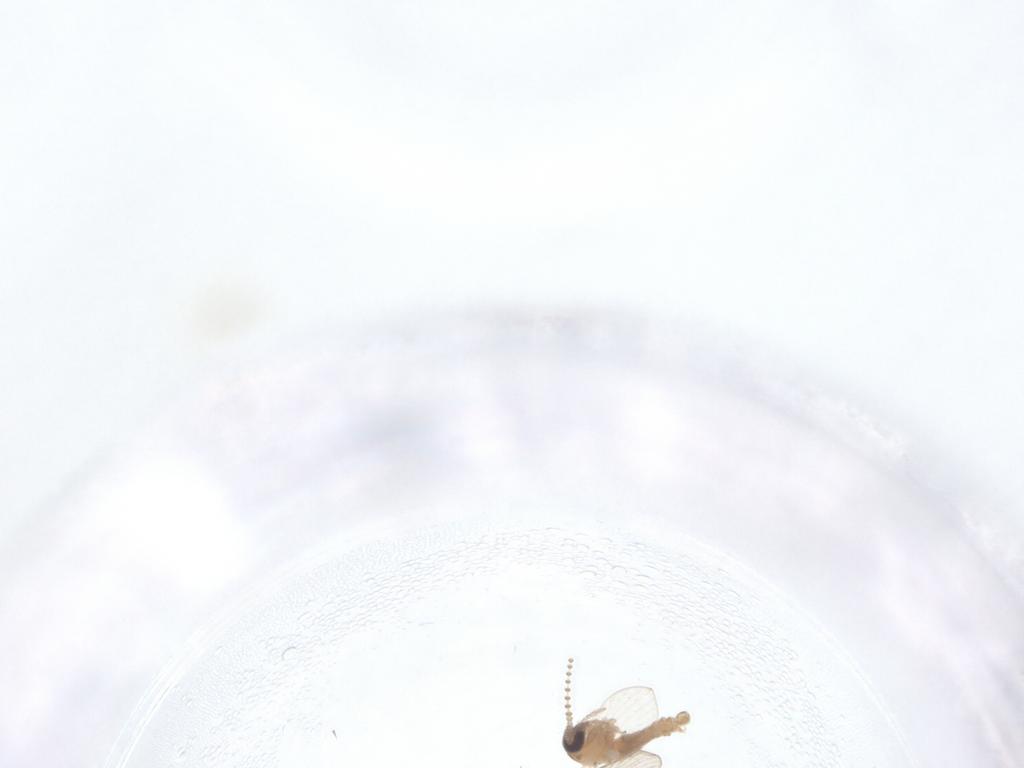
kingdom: Animalia
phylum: Arthropoda
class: Insecta
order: Diptera
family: Psychodidae
